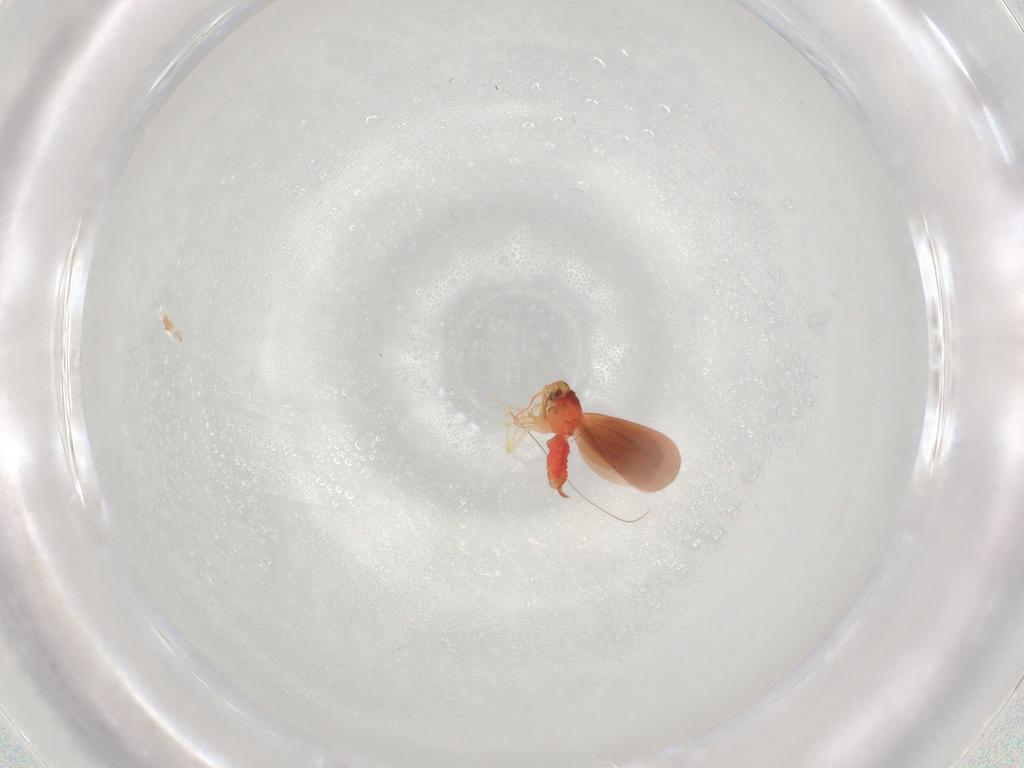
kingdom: Animalia
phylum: Arthropoda
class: Insecta
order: Hemiptera
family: Aleyrodidae
